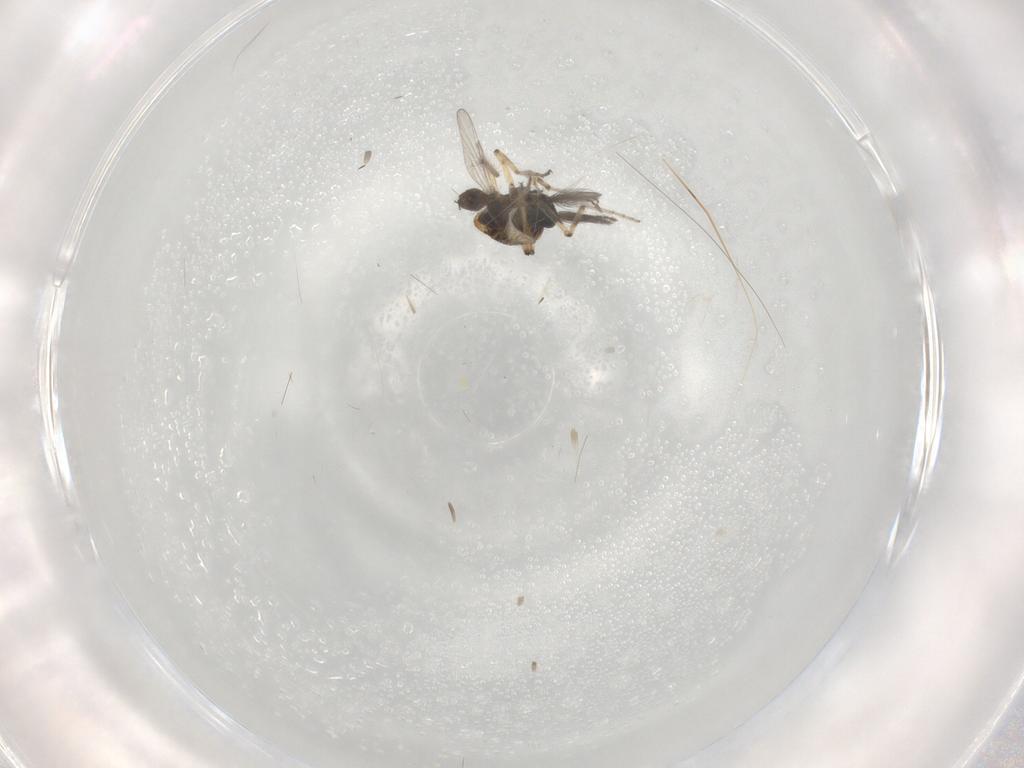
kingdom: Animalia
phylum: Arthropoda
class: Insecta
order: Diptera
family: Ceratopogonidae
